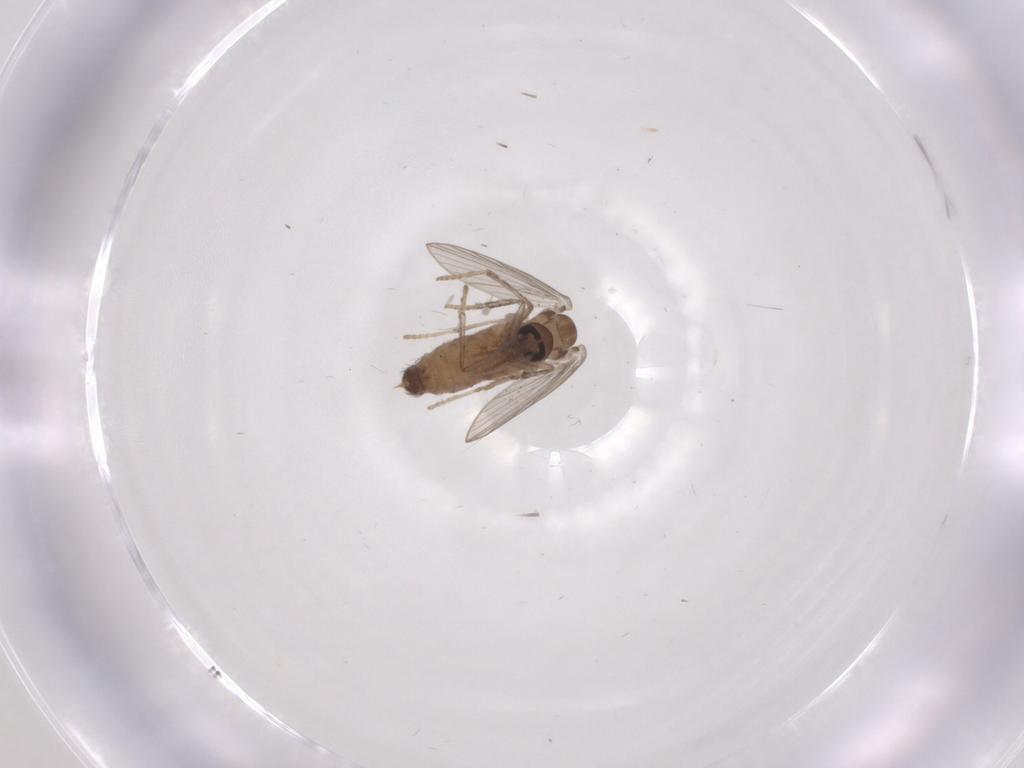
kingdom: Animalia
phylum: Arthropoda
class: Insecta
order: Diptera
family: Psychodidae
